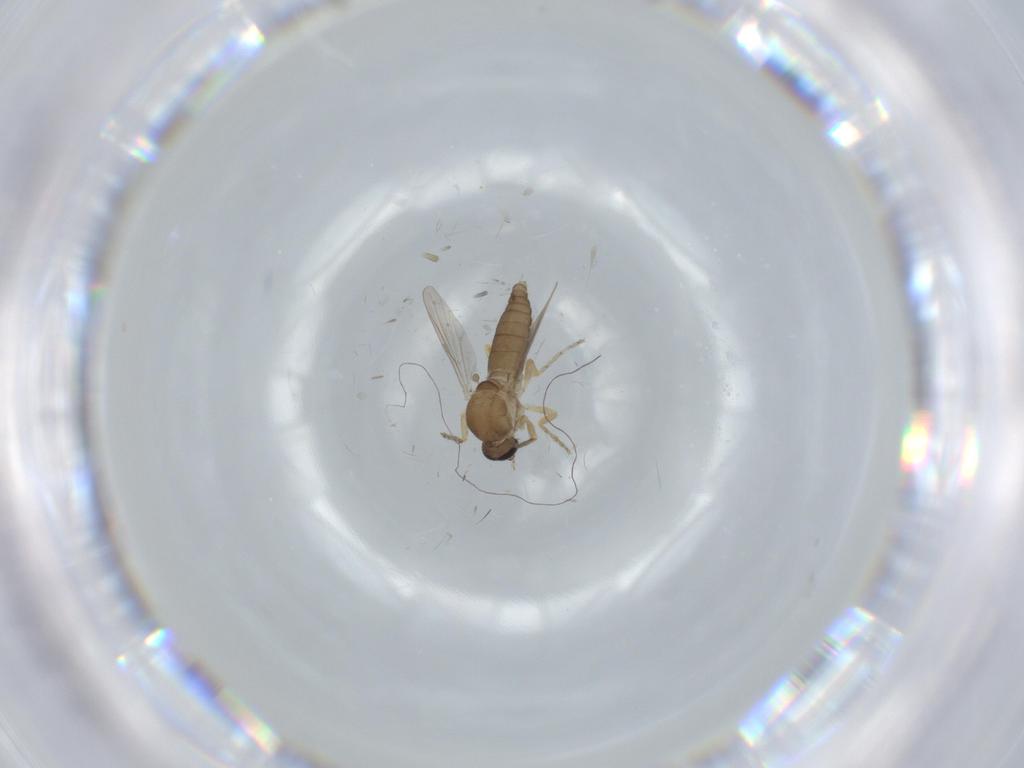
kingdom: Animalia
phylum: Arthropoda
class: Insecta
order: Diptera
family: Ceratopogonidae
